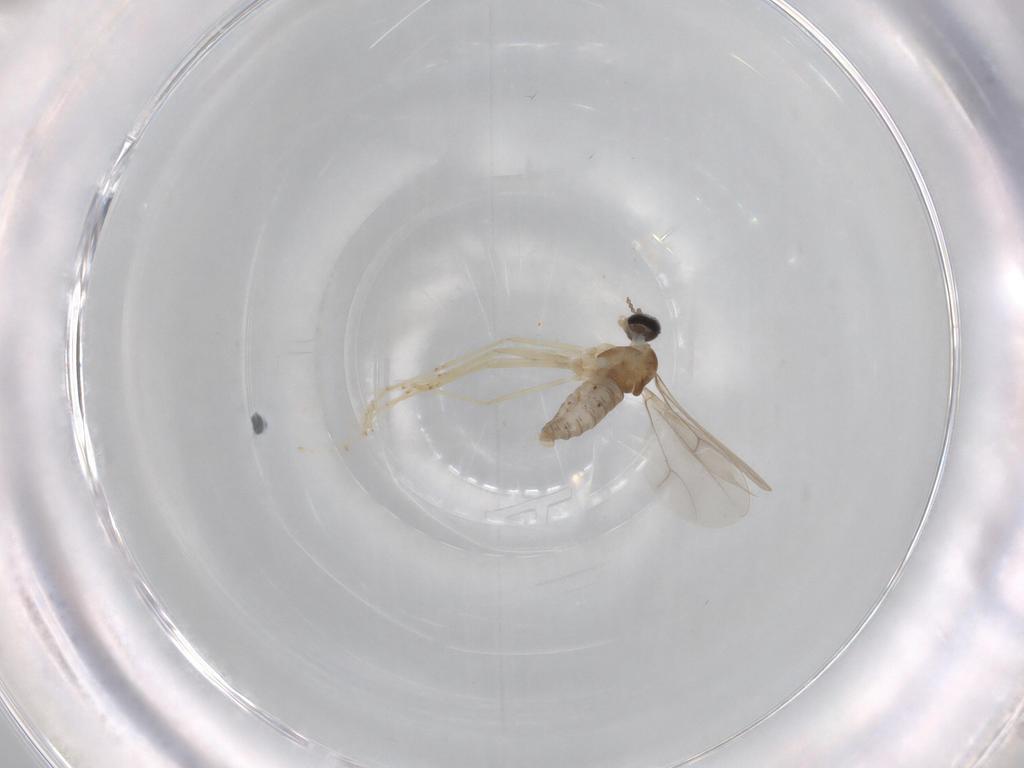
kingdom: Animalia
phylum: Arthropoda
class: Insecta
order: Diptera
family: Cecidomyiidae
